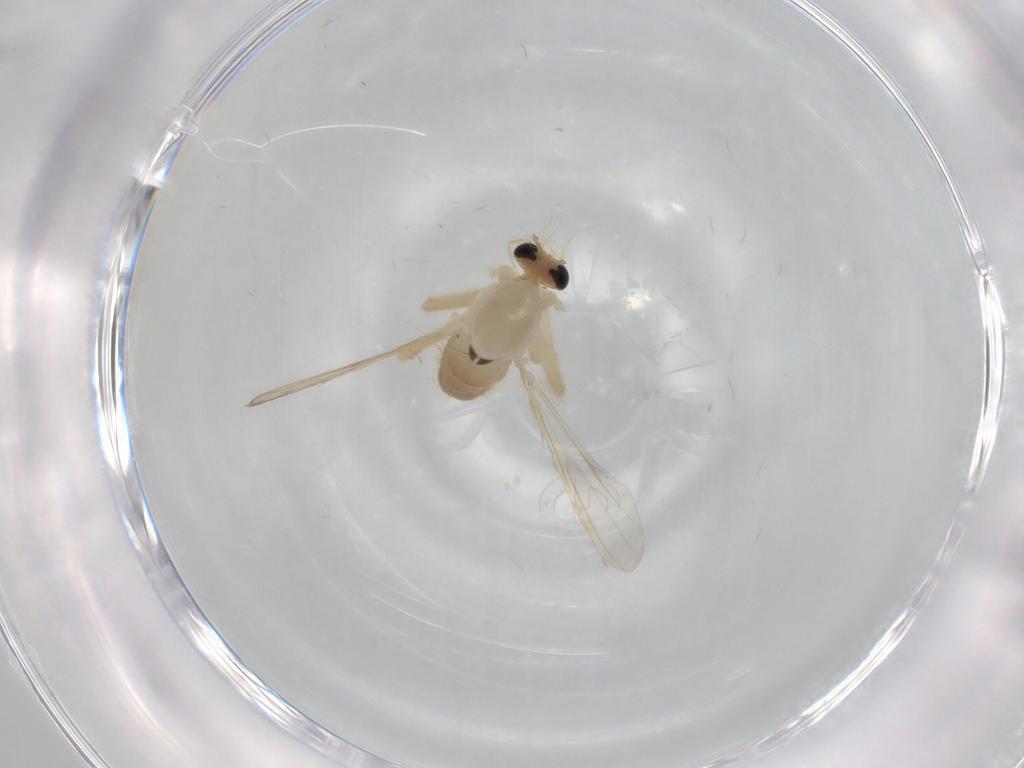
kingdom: Animalia
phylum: Arthropoda
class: Insecta
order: Diptera
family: Chironomidae
